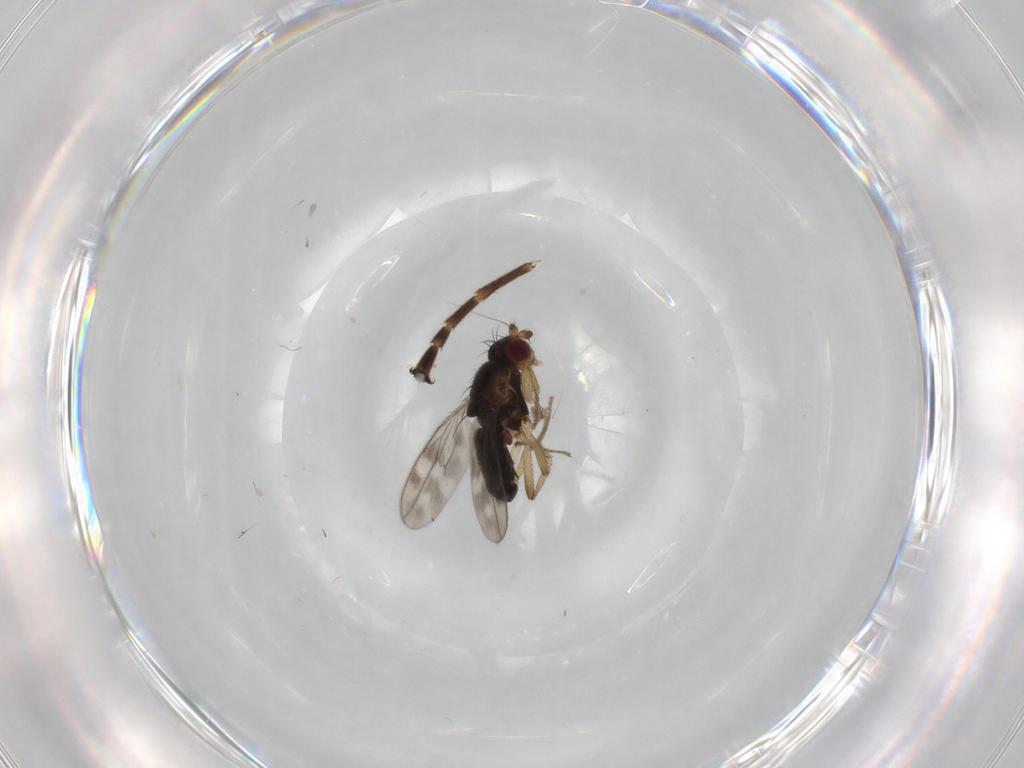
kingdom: Animalia
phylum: Arthropoda
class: Insecta
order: Diptera
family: Sphaeroceridae
